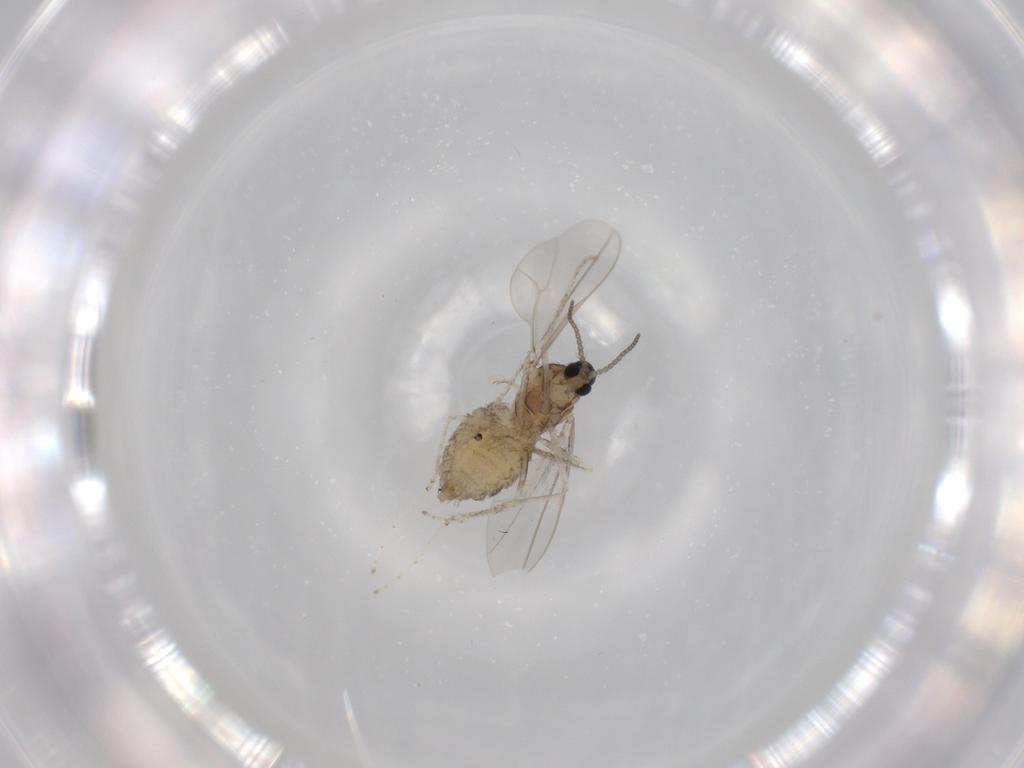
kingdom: Animalia
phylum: Arthropoda
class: Insecta
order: Diptera
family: Cecidomyiidae
